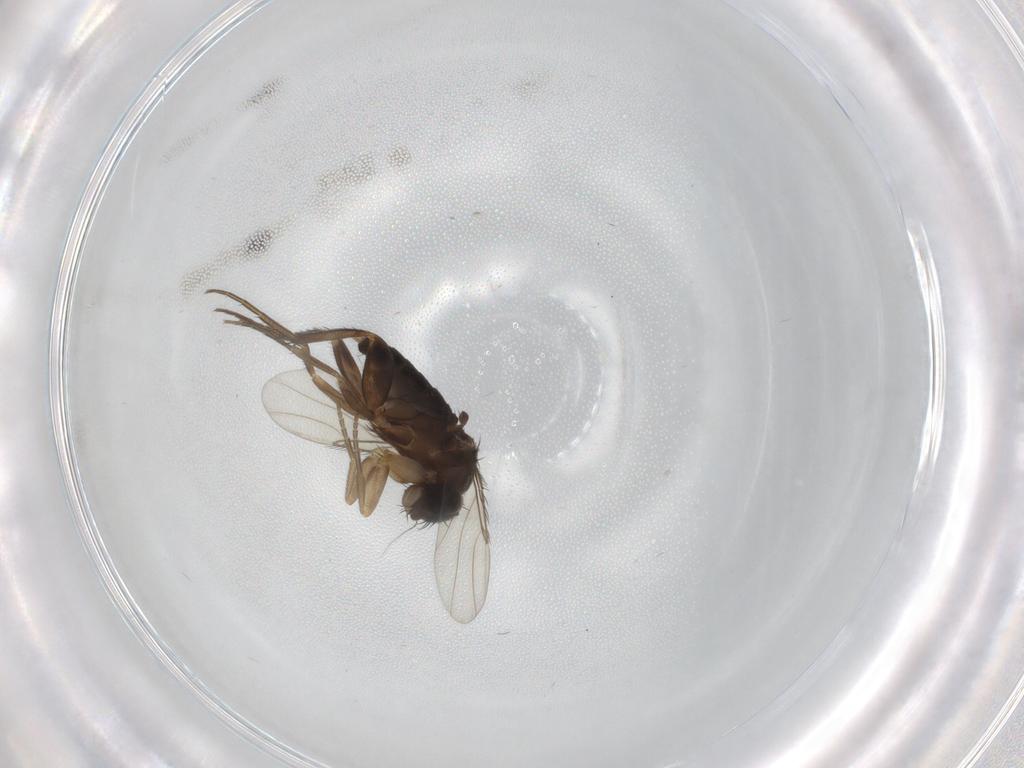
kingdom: Animalia
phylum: Arthropoda
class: Insecta
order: Diptera
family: Phoridae
